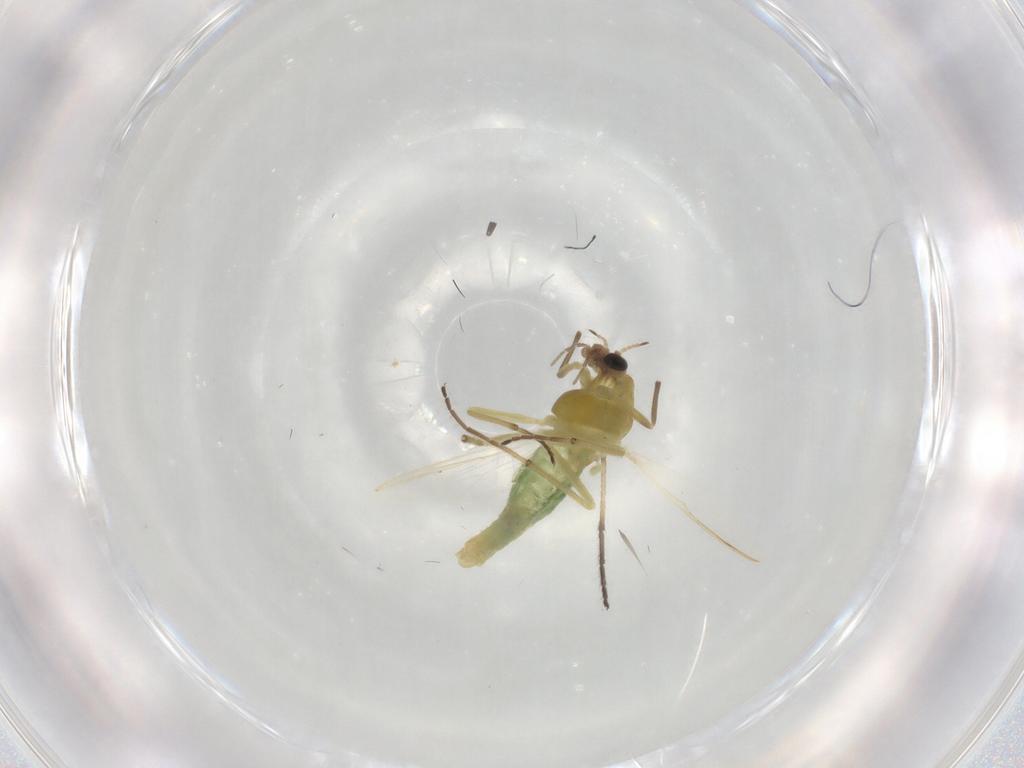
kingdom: Animalia
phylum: Arthropoda
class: Insecta
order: Diptera
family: Chironomidae
